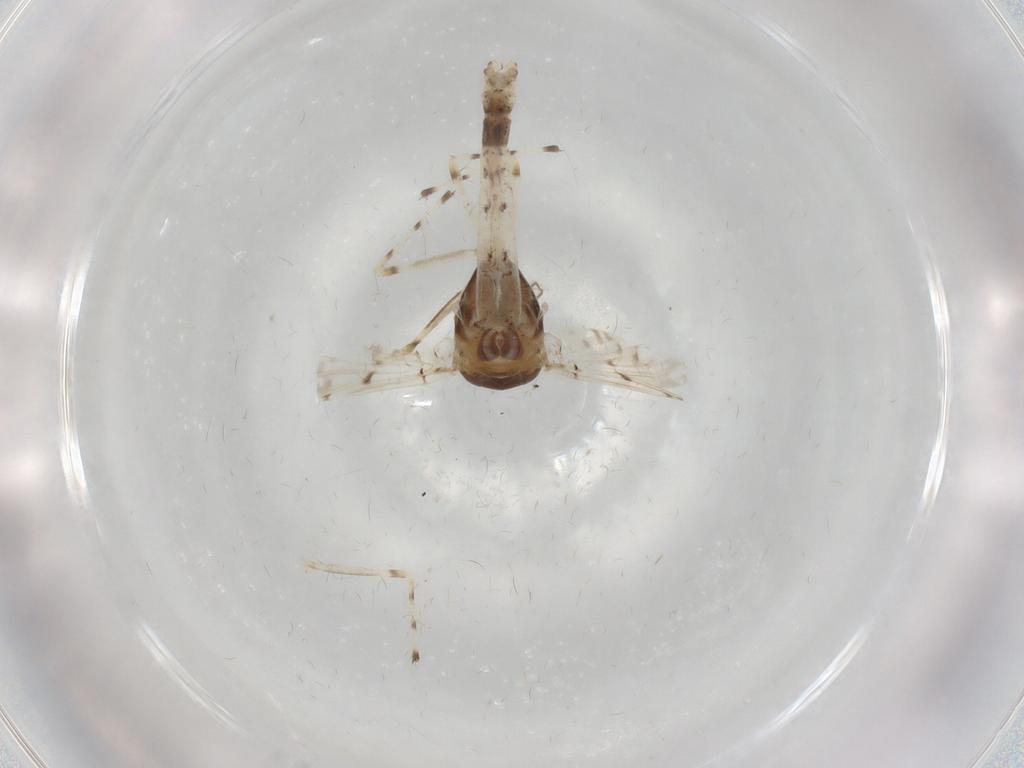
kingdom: Animalia
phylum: Arthropoda
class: Insecta
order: Diptera
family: Chironomidae
